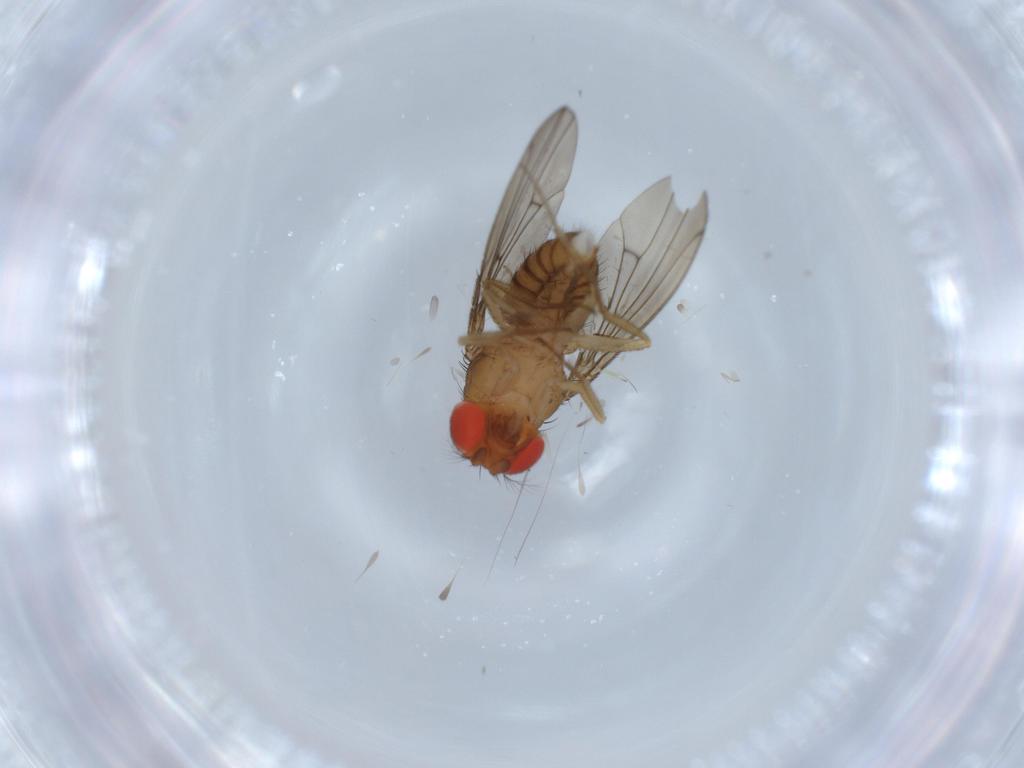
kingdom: Animalia
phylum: Arthropoda
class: Insecta
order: Diptera
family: Drosophilidae
